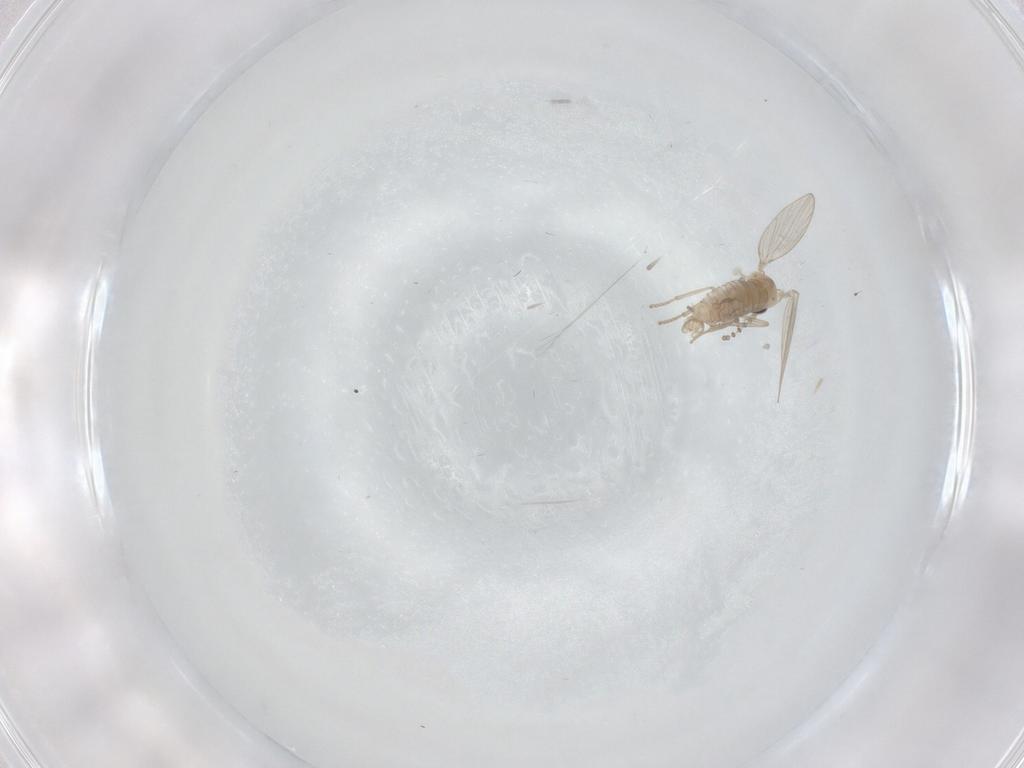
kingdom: Animalia
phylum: Arthropoda
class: Insecta
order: Diptera
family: Psychodidae
